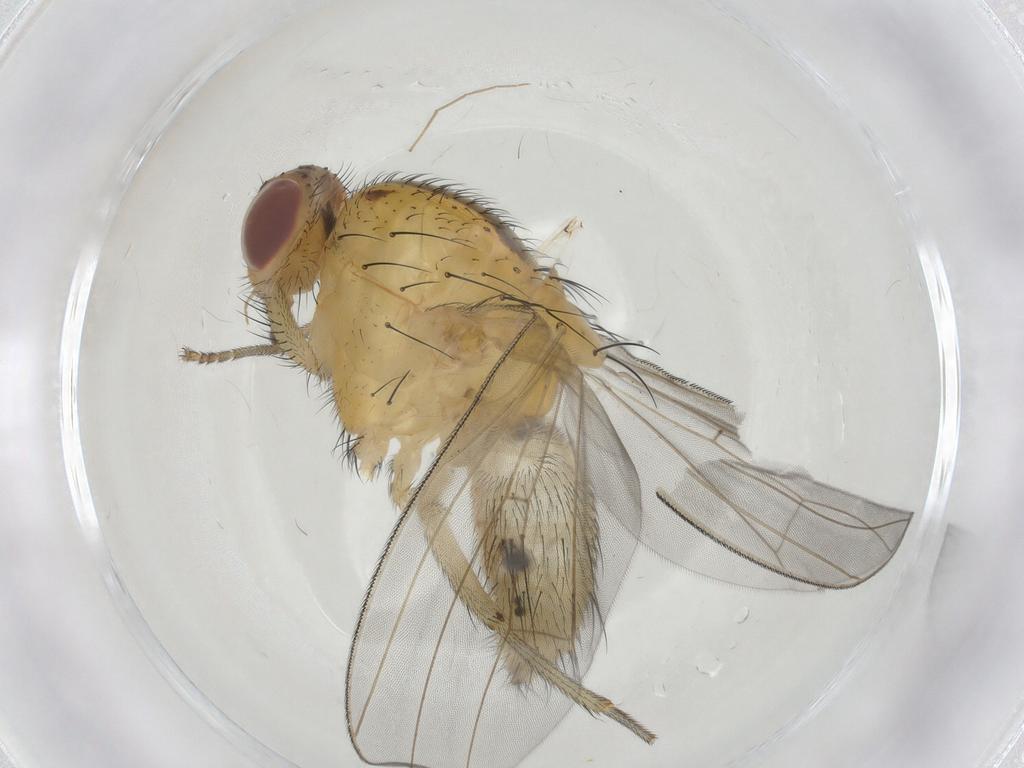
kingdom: Animalia
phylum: Arthropoda
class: Insecta
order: Diptera
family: Chironomidae
